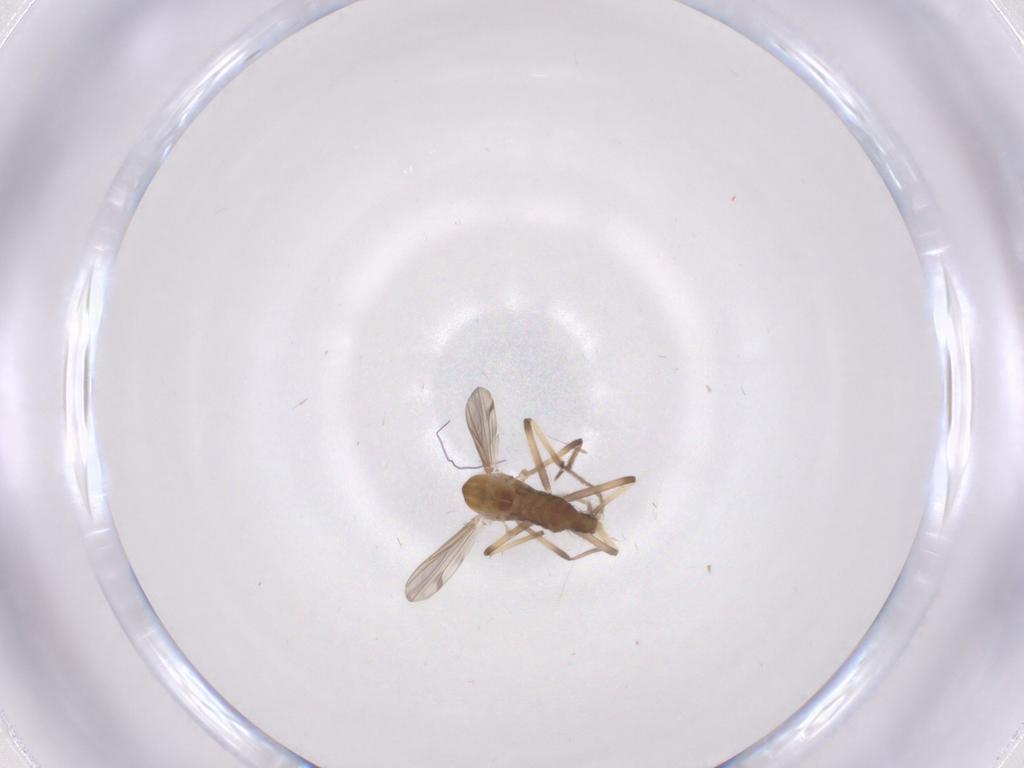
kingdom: Animalia
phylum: Arthropoda
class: Insecta
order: Diptera
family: Chironomidae
